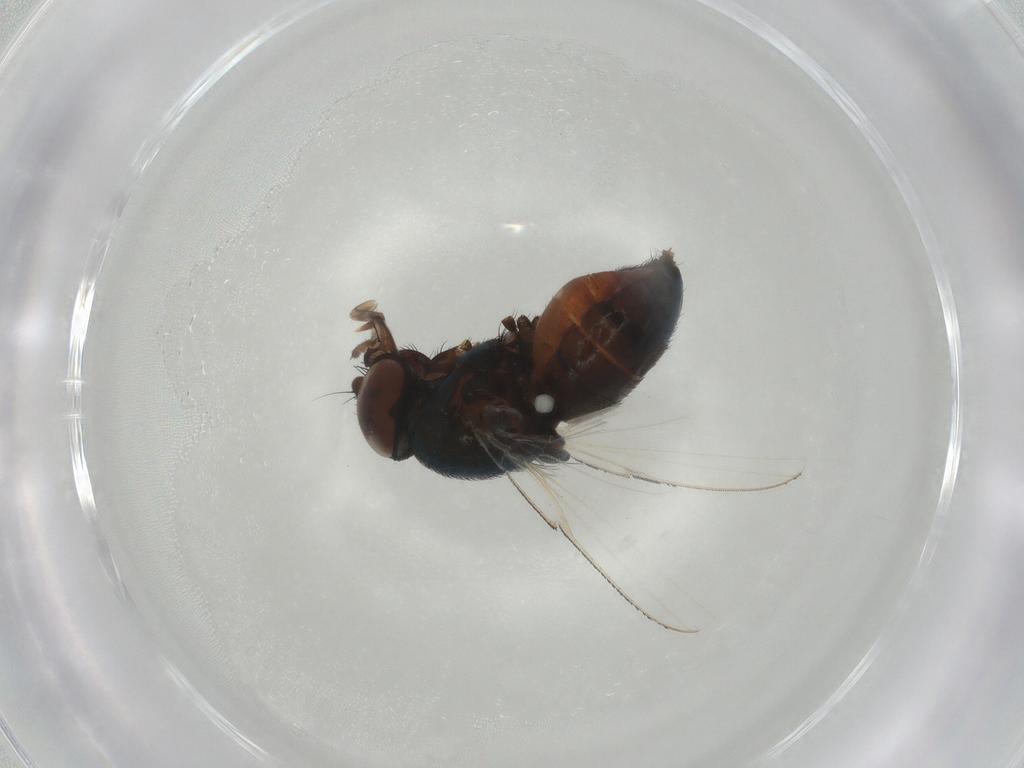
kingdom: Animalia
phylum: Arthropoda
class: Insecta
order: Diptera
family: Milichiidae
